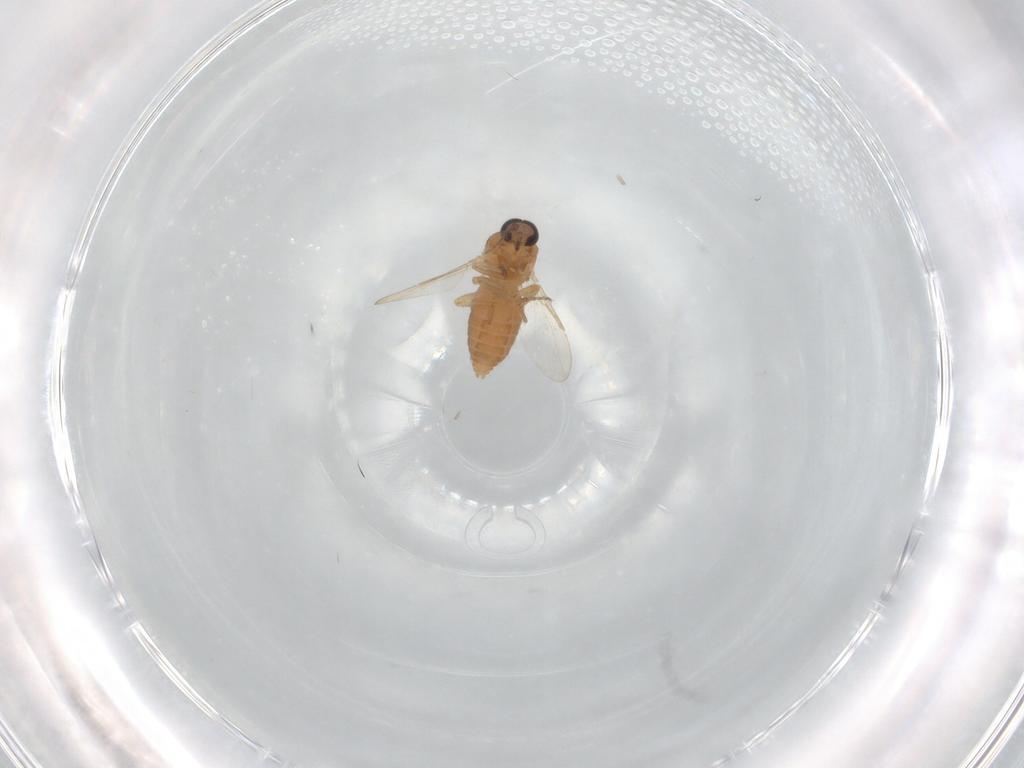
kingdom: Animalia
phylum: Arthropoda
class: Insecta
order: Diptera
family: Ceratopogonidae
